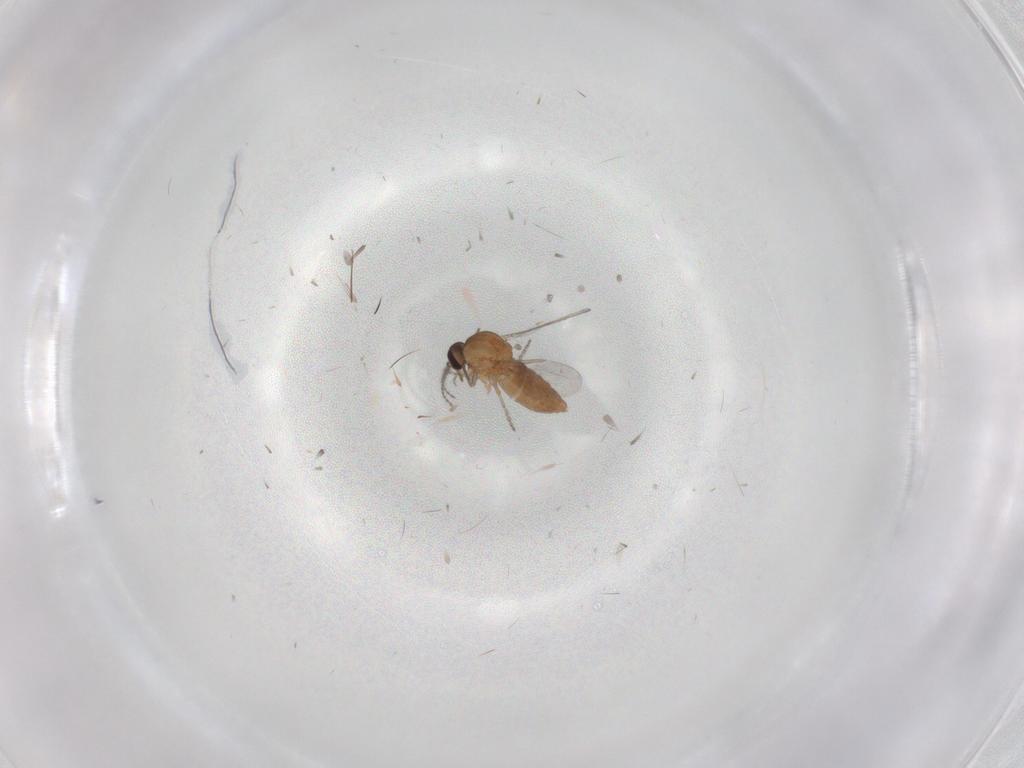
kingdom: Animalia
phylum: Arthropoda
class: Insecta
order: Diptera
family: Ceratopogonidae
